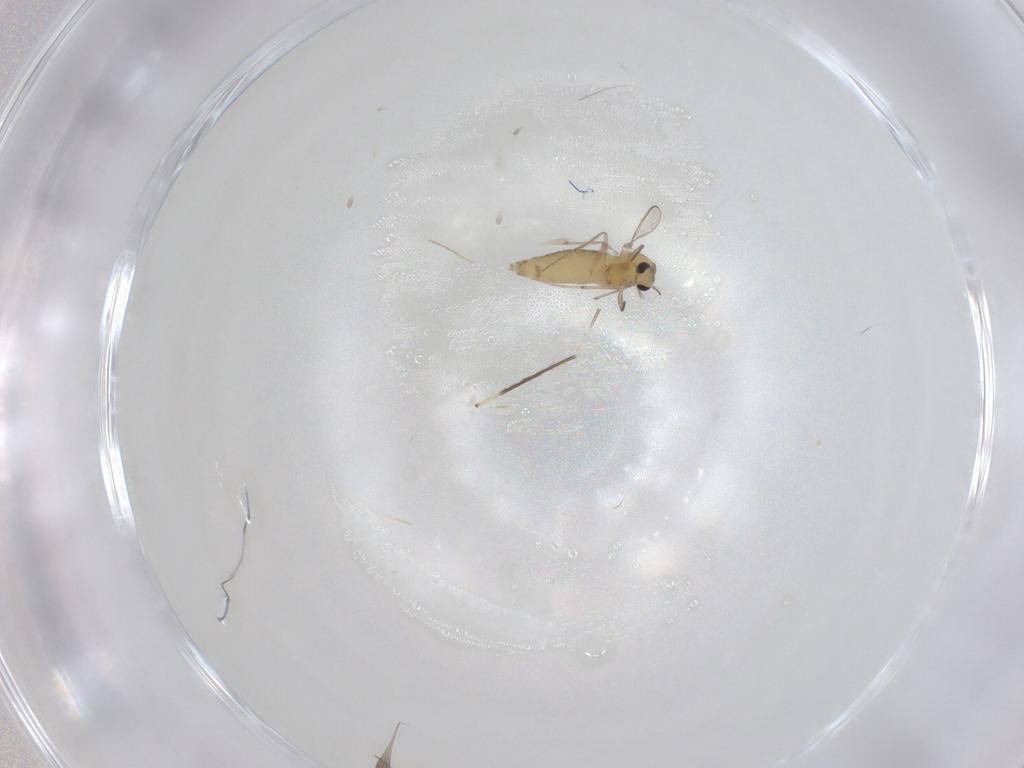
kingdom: Animalia
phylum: Arthropoda
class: Insecta
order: Diptera
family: Chironomidae
